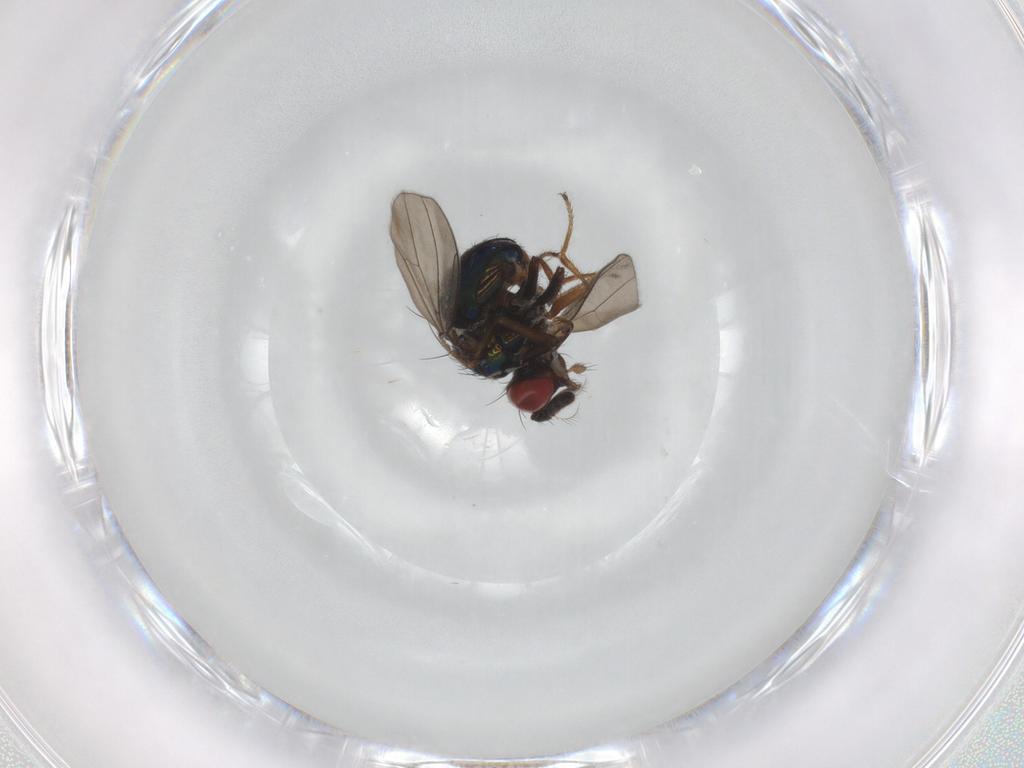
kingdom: Animalia
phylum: Arthropoda
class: Insecta
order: Diptera
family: Ephydridae
